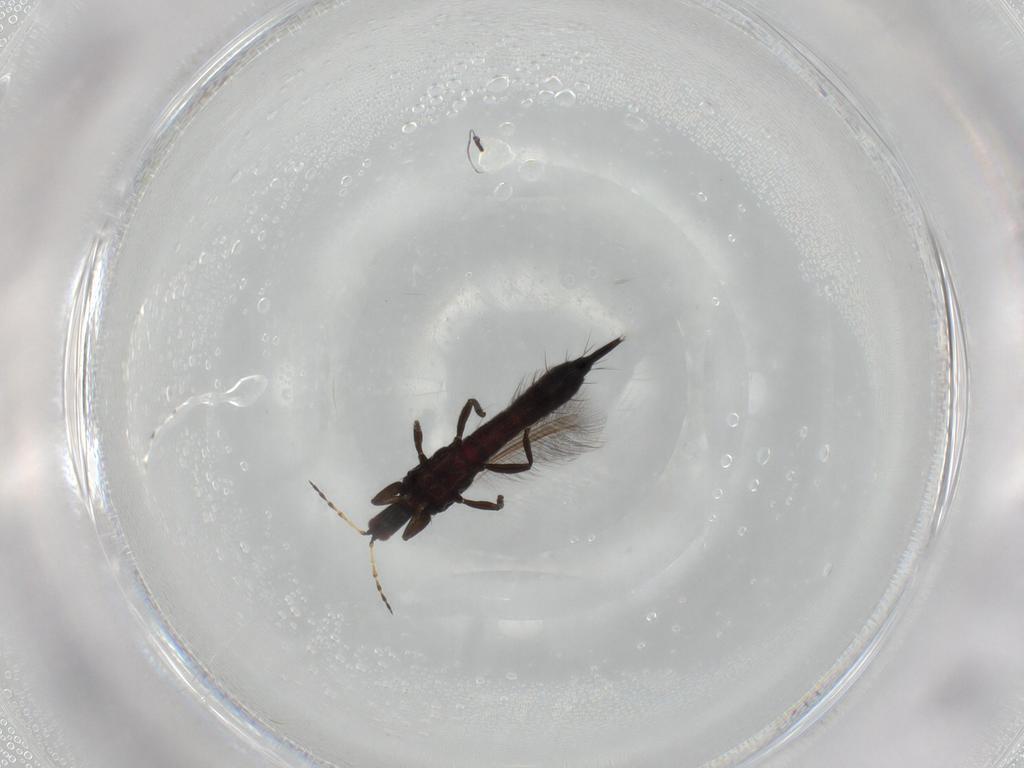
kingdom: Animalia
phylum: Arthropoda
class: Insecta
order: Thysanoptera
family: Phlaeothripidae
